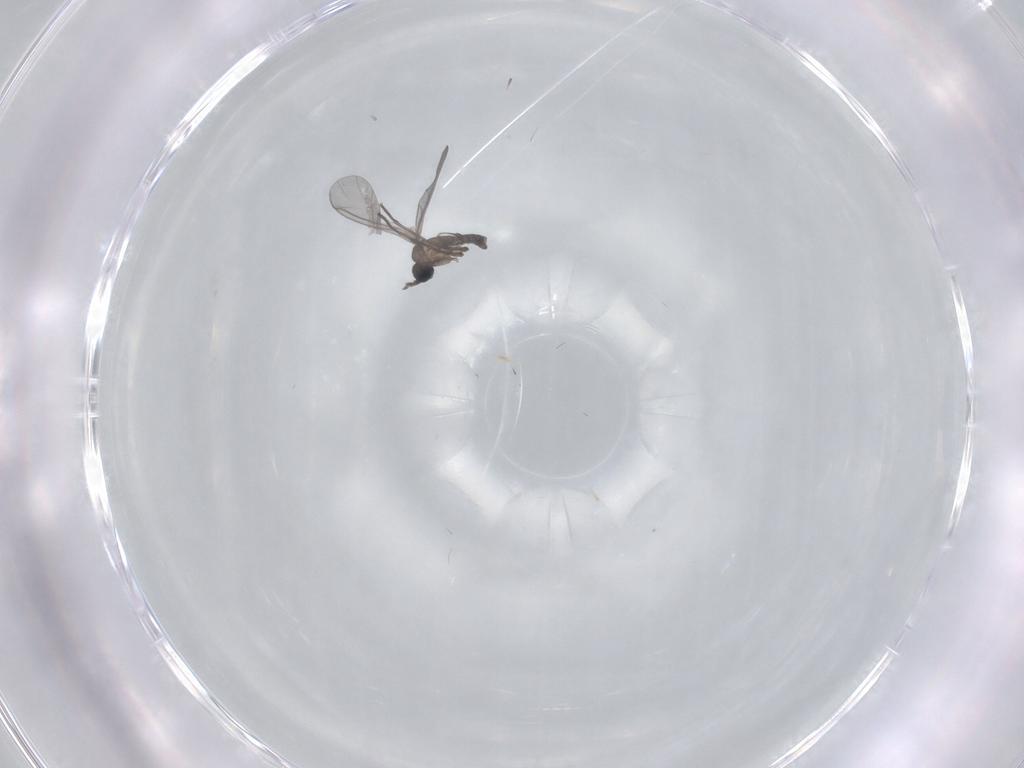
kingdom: Animalia
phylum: Arthropoda
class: Insecta
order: Diptera
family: Sciaridae
